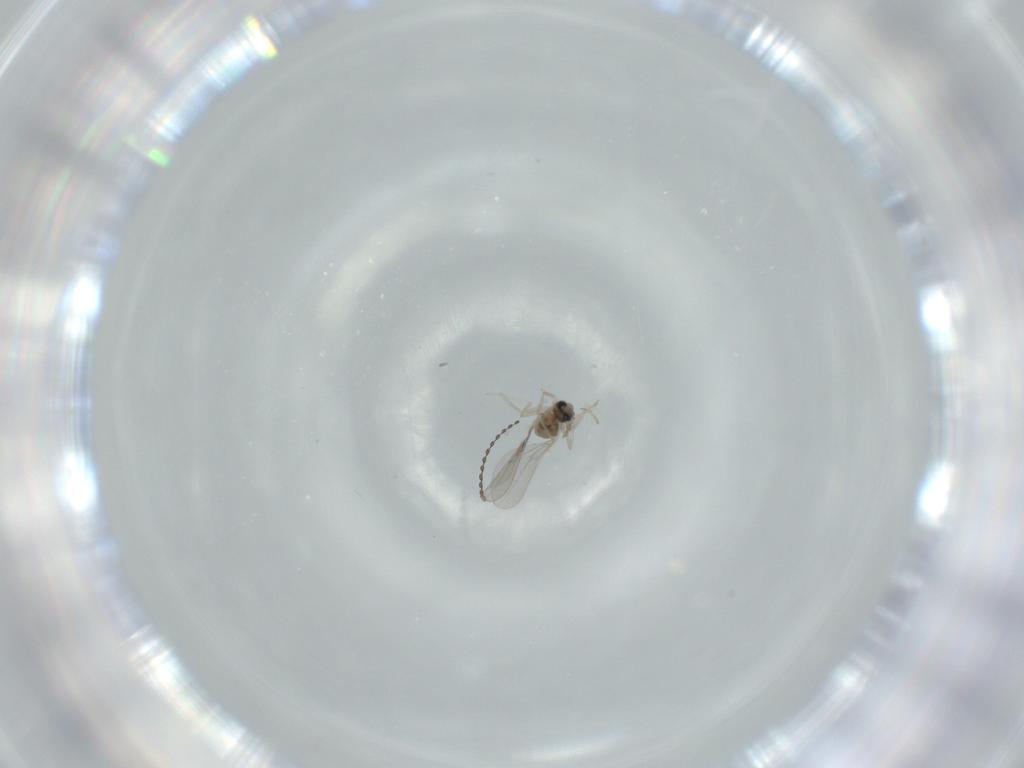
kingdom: Animalia
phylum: Arthropoda
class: Insecta
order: Diptera
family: Cecidomyiidae
